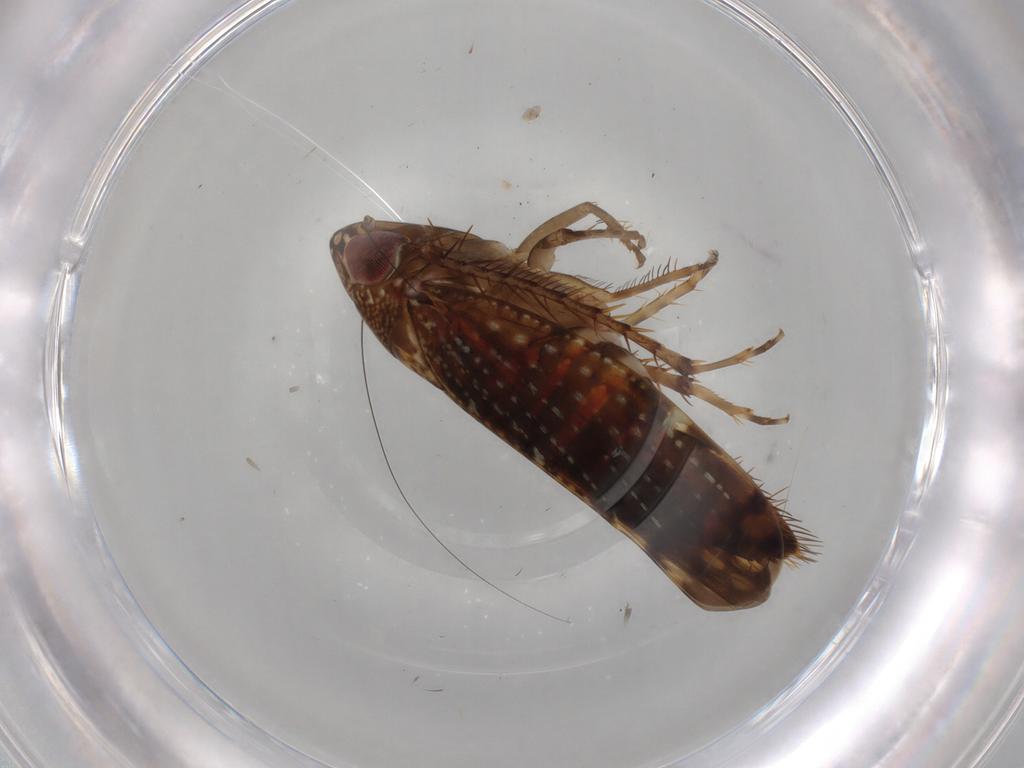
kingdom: Animalia
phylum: Arthropoda
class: Insecta
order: Hemiptera
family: Cicadellidae
